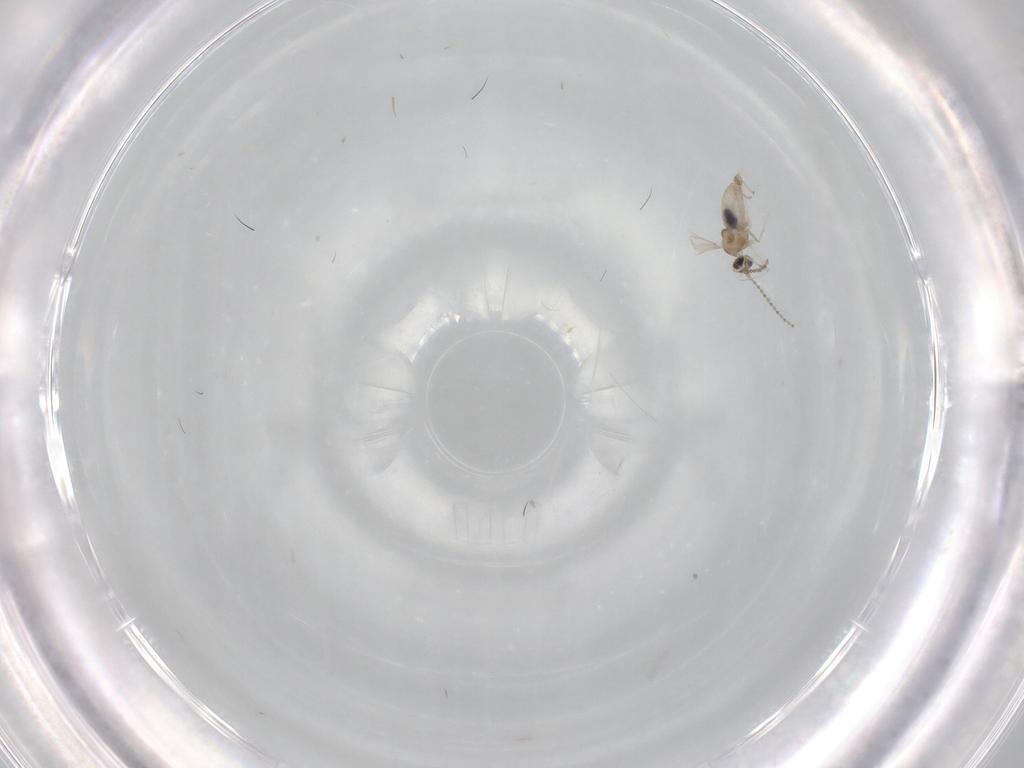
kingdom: Animalia
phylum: Arthropoda
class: Insecta
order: Diptera
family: Cecidomyiidae
